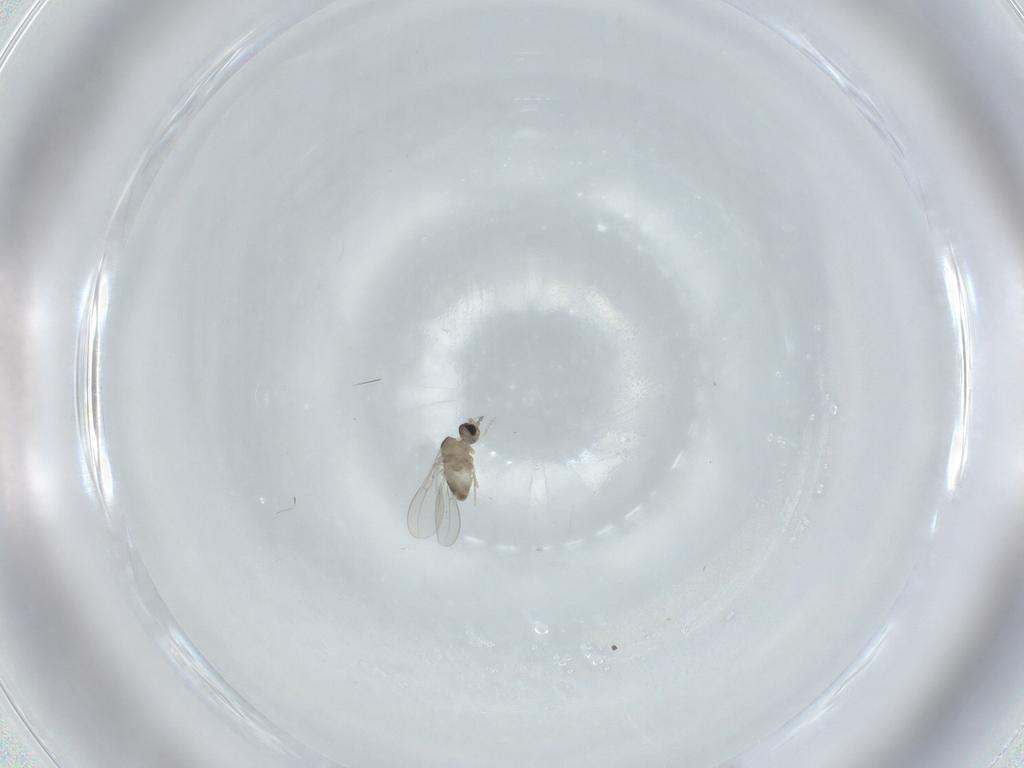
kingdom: Animalia
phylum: Arthropoda
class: Insecta
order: Diptera
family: Cecidomyiidae
